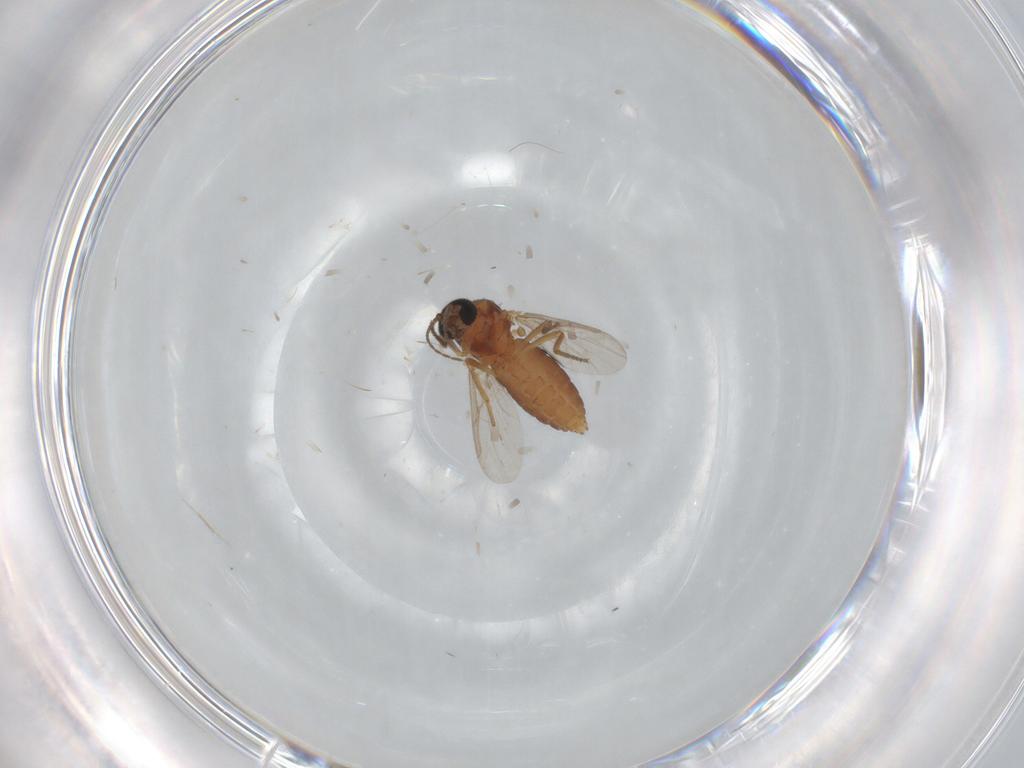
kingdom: Animalia
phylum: Arthropoda
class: Insecta
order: Diptera
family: Ceratopogonidae
